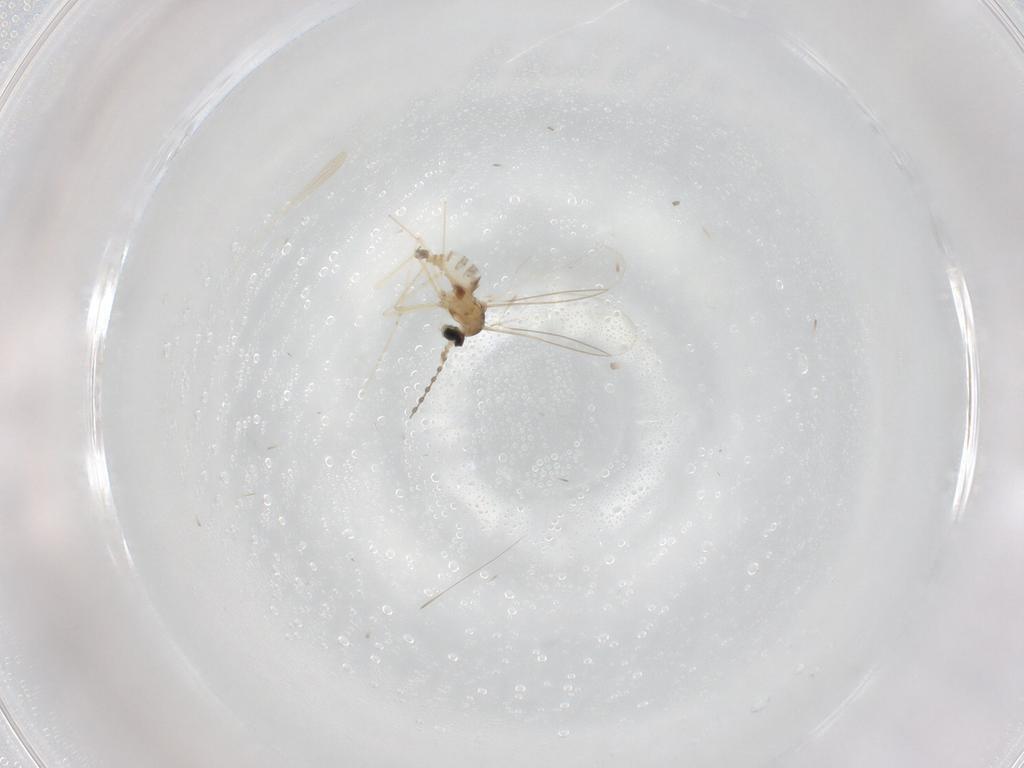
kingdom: Animalia
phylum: Arthropoda
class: Insecta
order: Diptera
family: Cecidomyiidae
